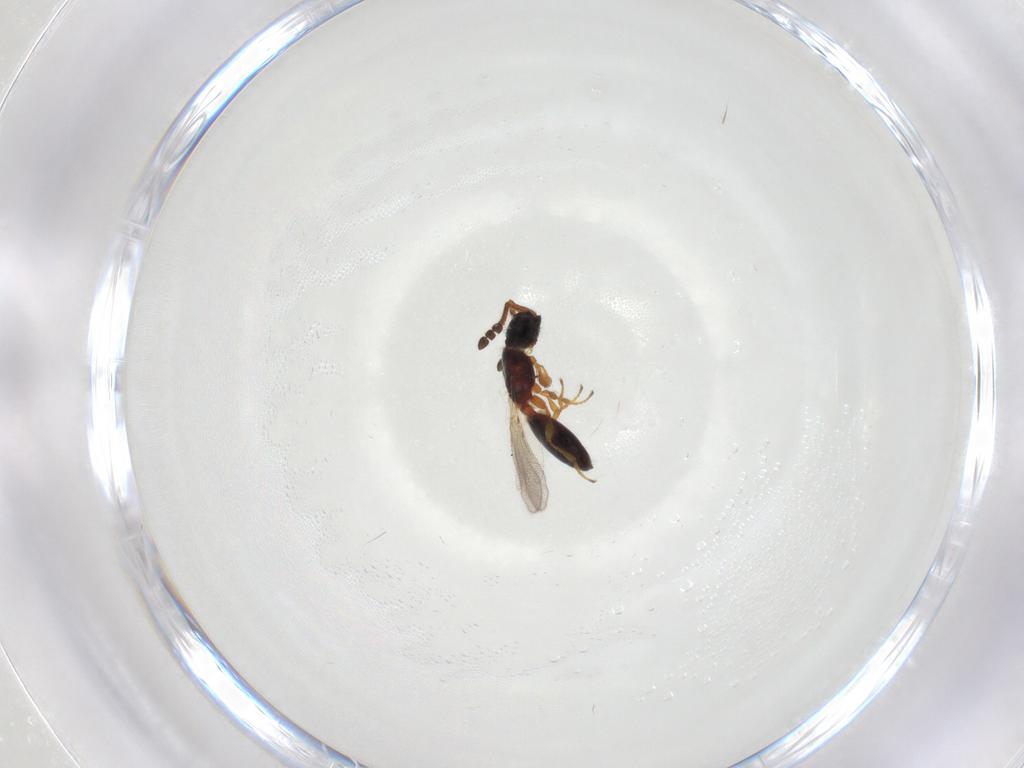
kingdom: Animalia
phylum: Arthropoda
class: Insecta
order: Hymenoptera
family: Diapriidae
